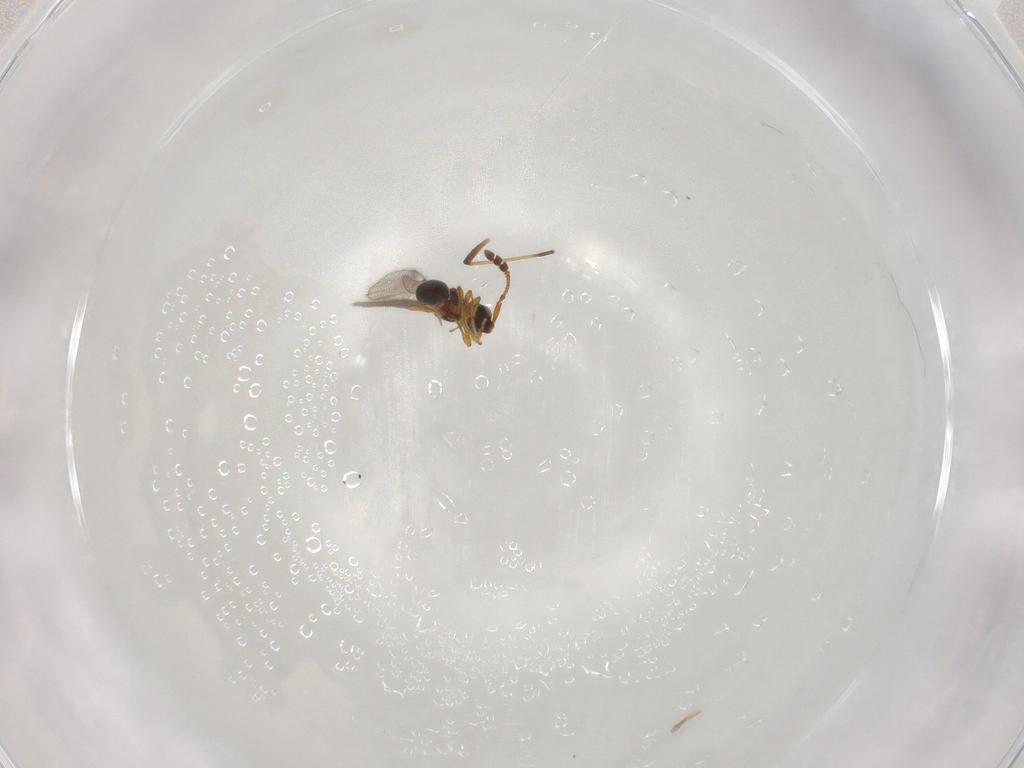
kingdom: Animalia
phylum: Arthropoda
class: Insecta
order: Hymenoptera
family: Diapriidae
